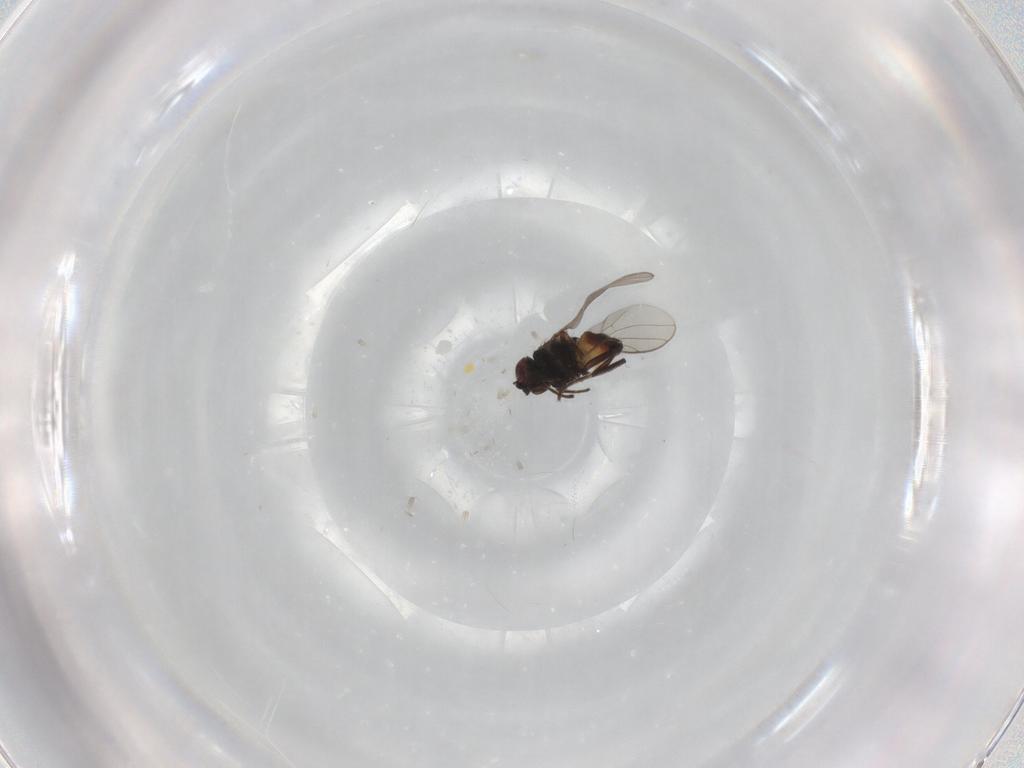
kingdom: Animalia
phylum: Arthropoda
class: Insecta
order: Diptera
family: Chloropidae
